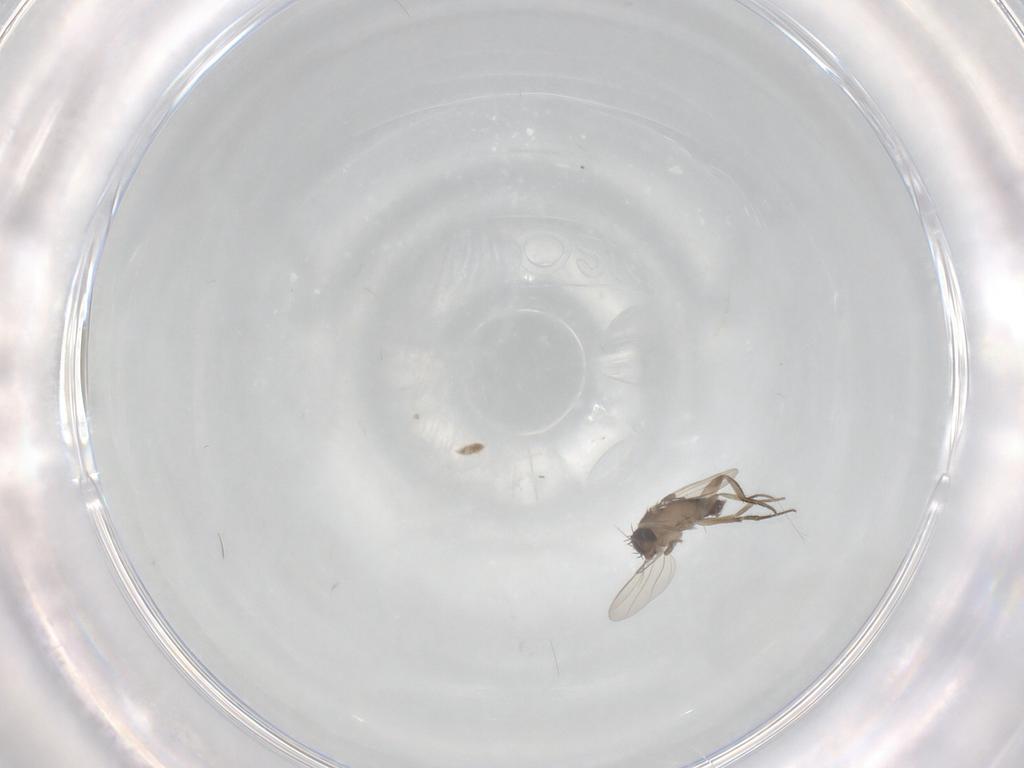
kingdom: Animalia
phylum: Arthropoda
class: Insecta
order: Diptera
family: Phoridae
